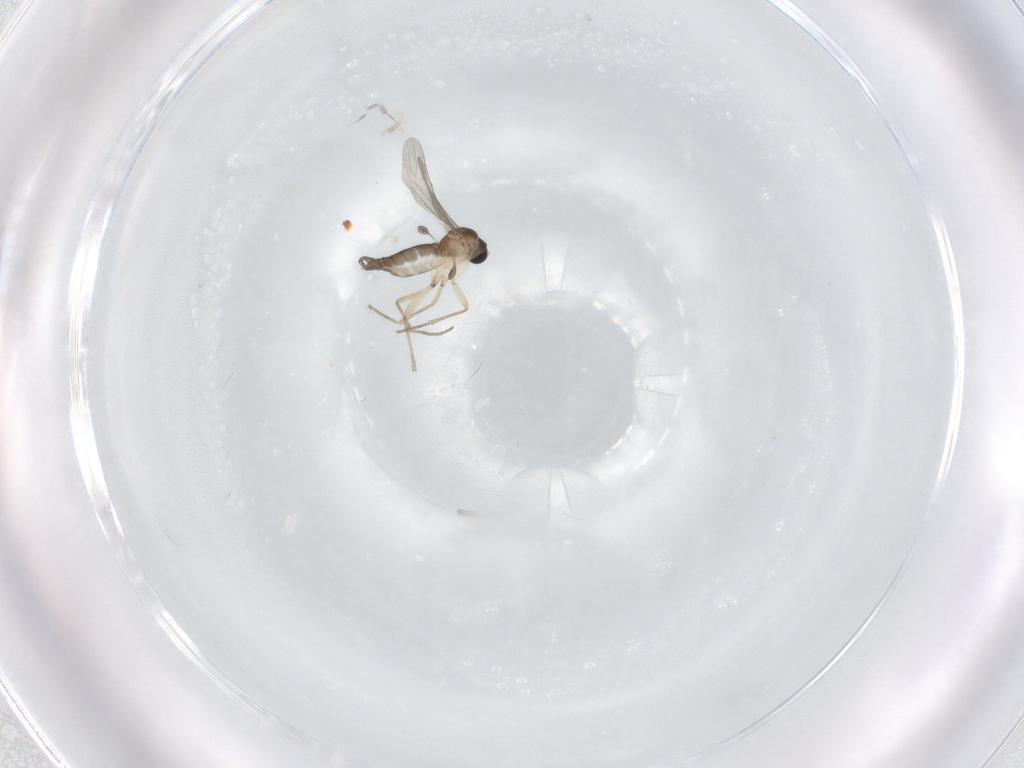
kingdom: Animalia
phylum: Arthropoda
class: Insecta
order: Diptera
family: Sciaridae
